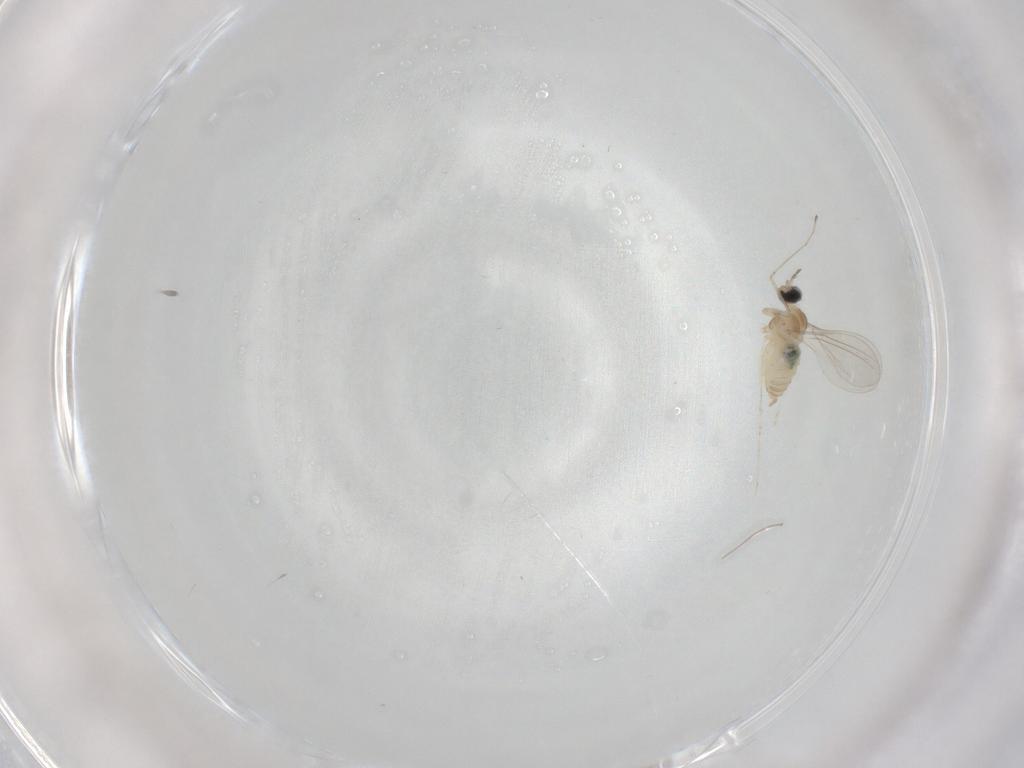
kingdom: Animalia
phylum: Arthropoda
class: Insecta
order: Diptera
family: Cecidomyiidae
